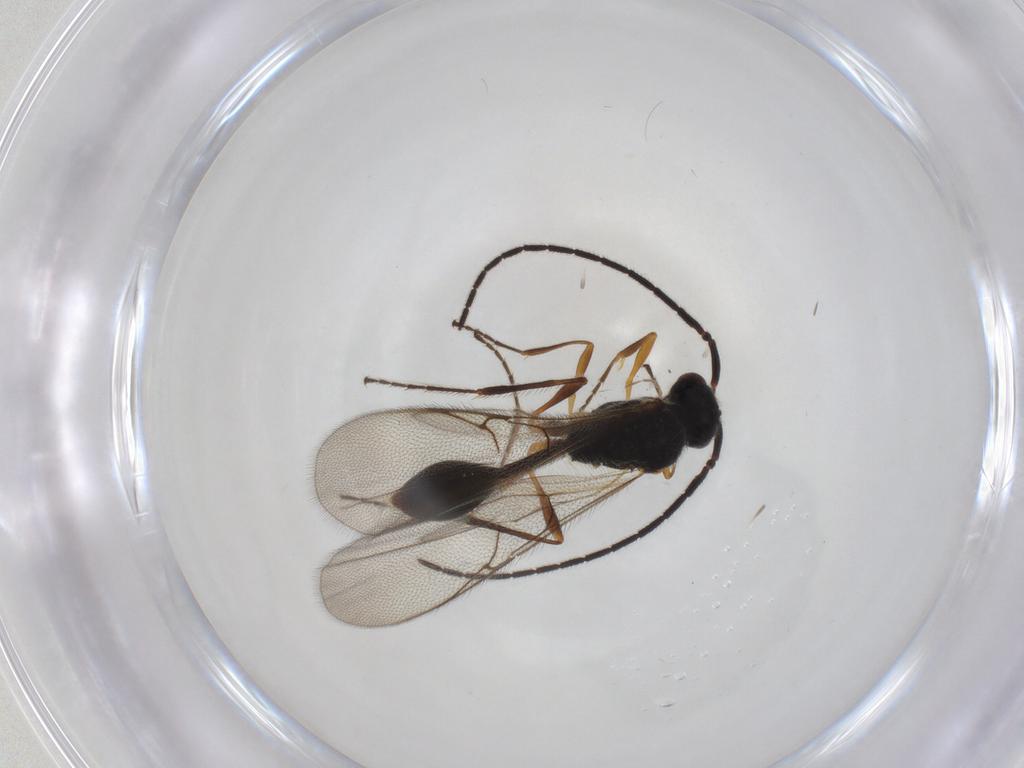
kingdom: Animalia
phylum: Arthropoda
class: Insecta
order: Hymenoptera
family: Diapriidae
